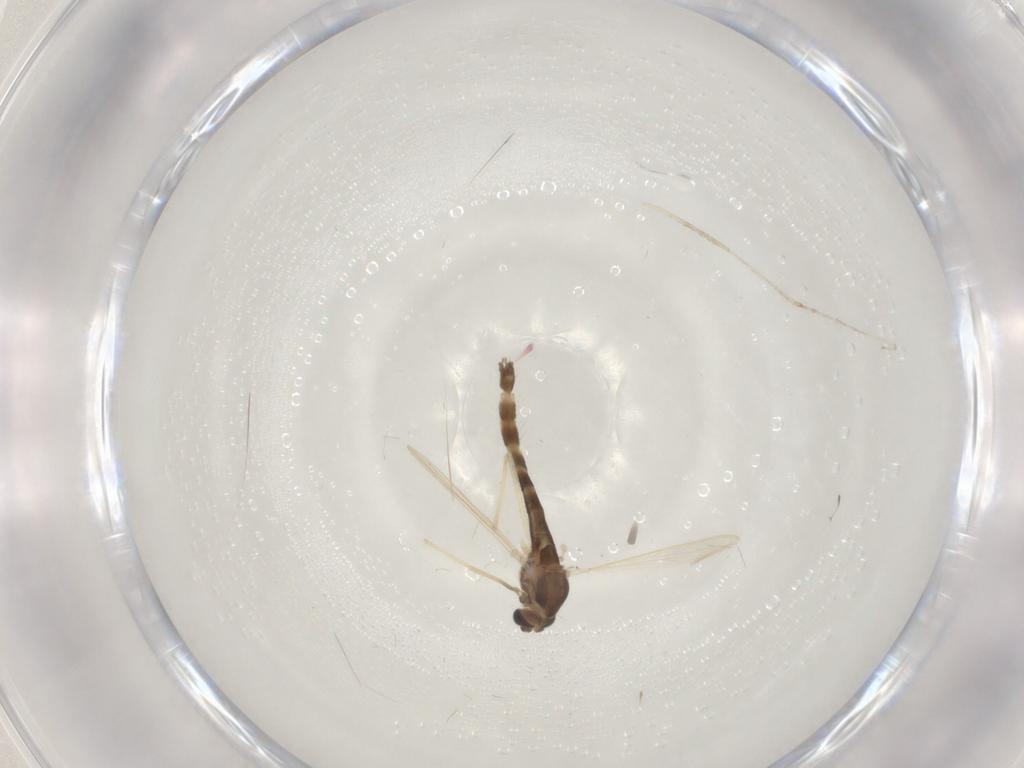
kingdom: Animalia
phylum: Arthropoda
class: Insecta
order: Diptera
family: Chironomidae
